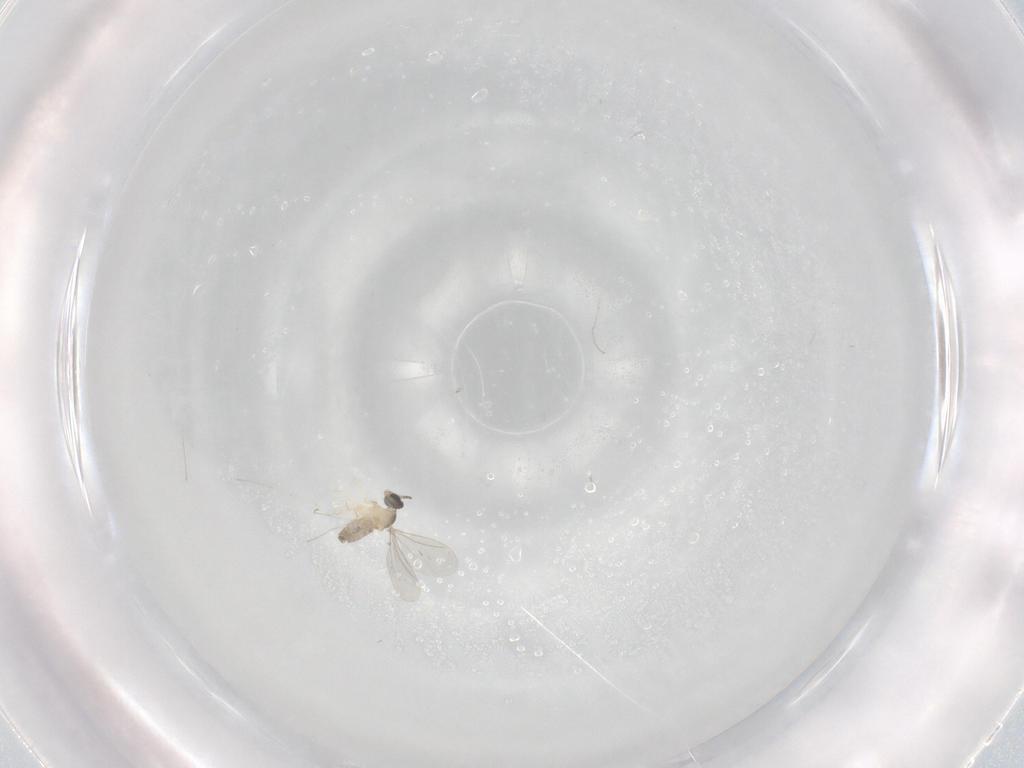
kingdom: Animalia
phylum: Arthropoda
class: Insecta
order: Diptera
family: Cecidomyiidae
